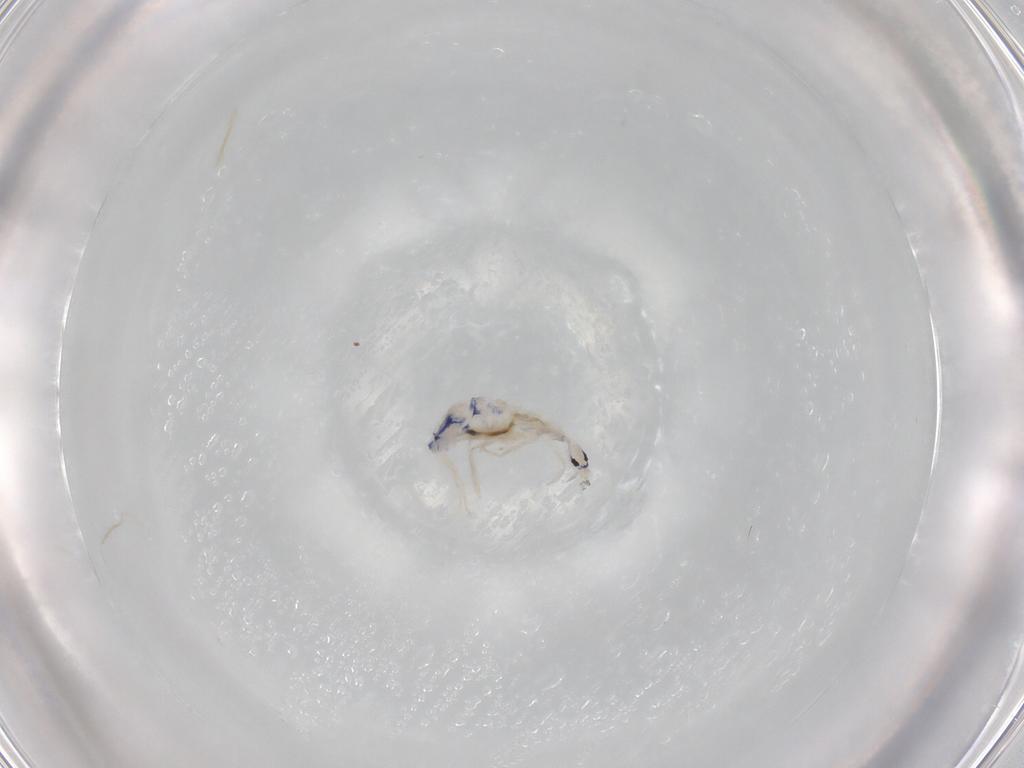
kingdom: Animalia
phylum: Arthropoda
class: Collembola
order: Entomobryomorpha
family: Entomobryidae
